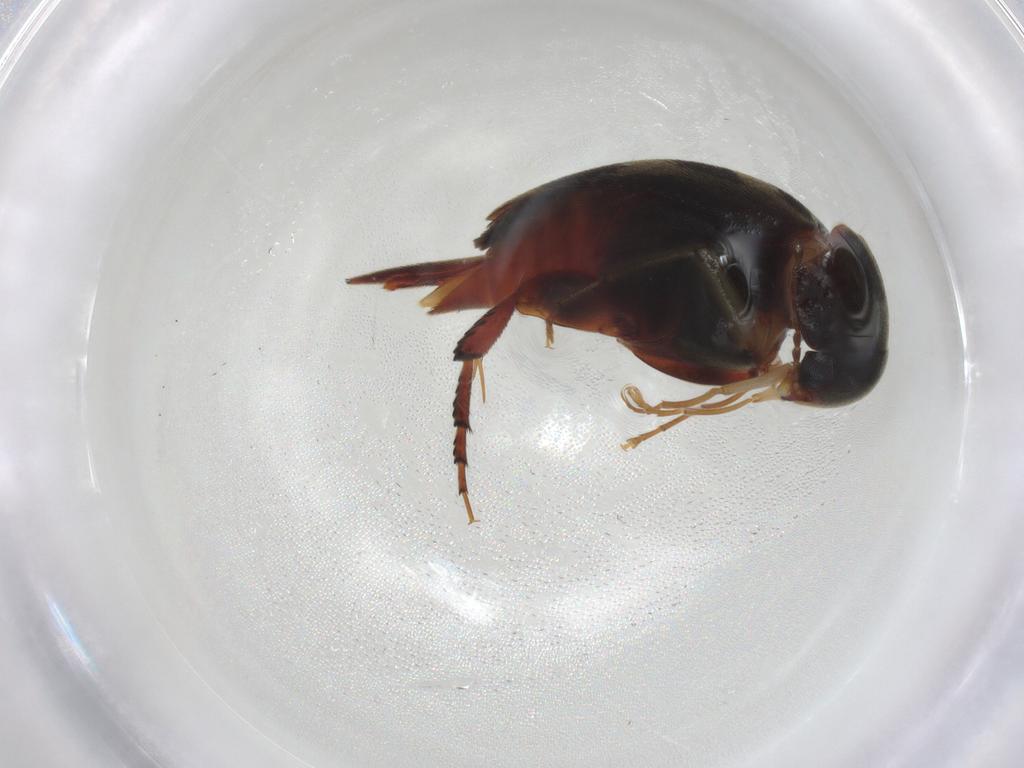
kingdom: Animalia
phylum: Arthropoda
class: Insecta
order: Coleoptera
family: Mordellidae
